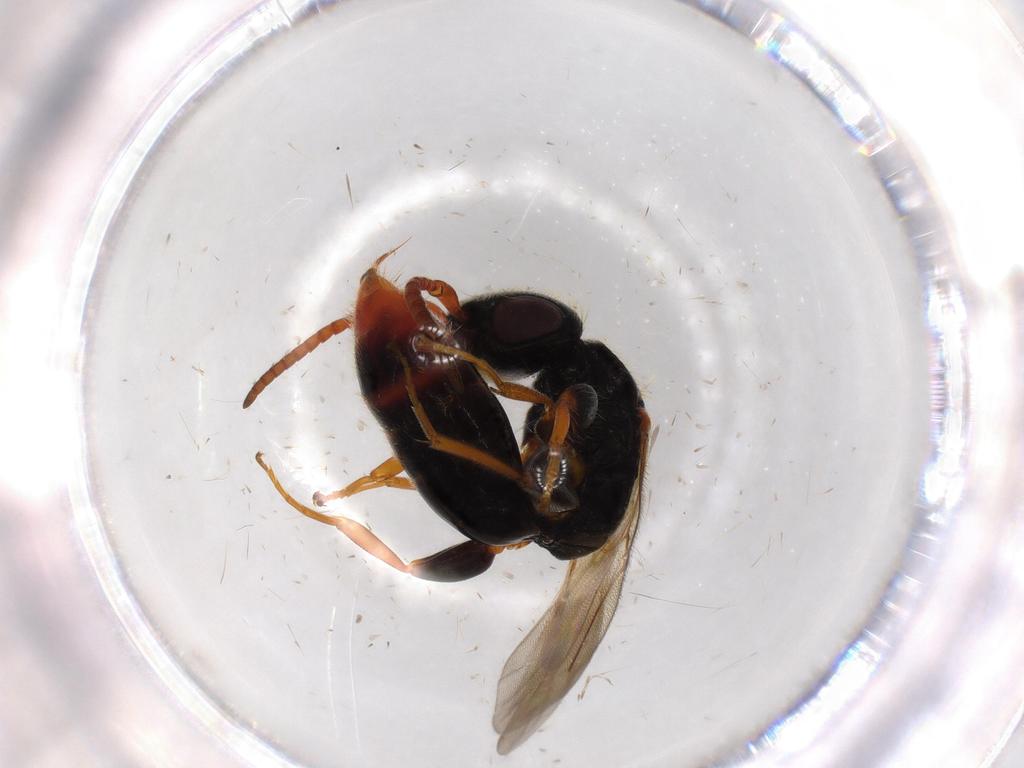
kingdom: Animalia
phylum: Arthropoda
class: Insecta
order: Hymenoptera
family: Bethylidae
